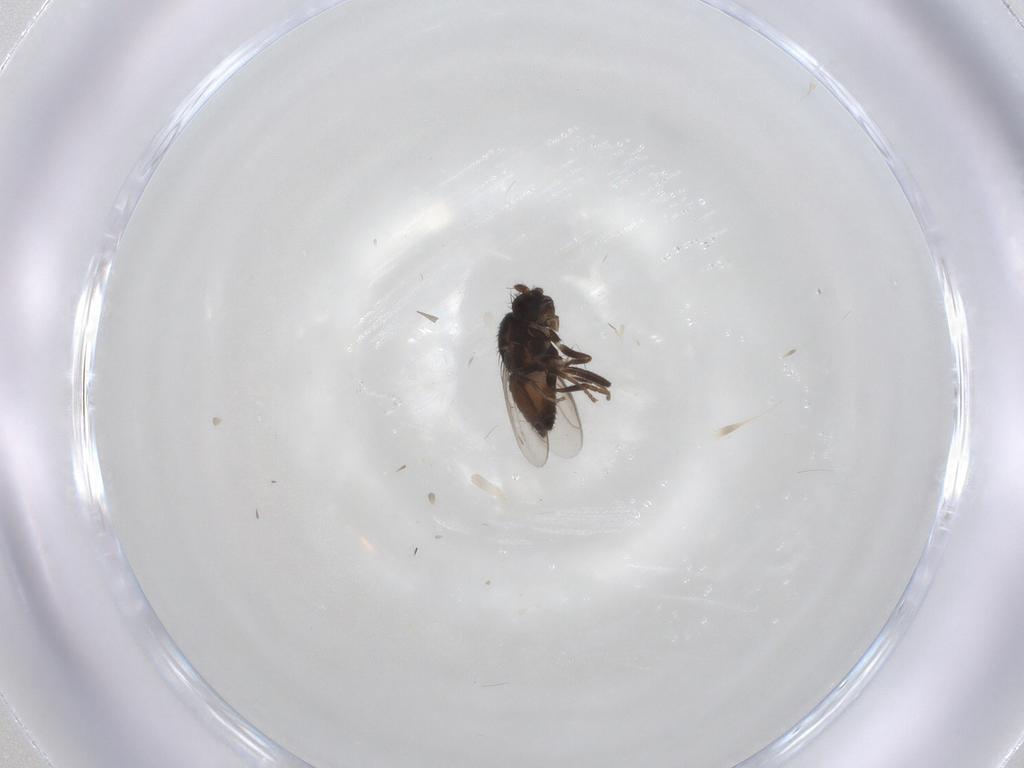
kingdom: Animalia
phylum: Arthropoda
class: Insecta
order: Diptera
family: Sphaeroceridae
